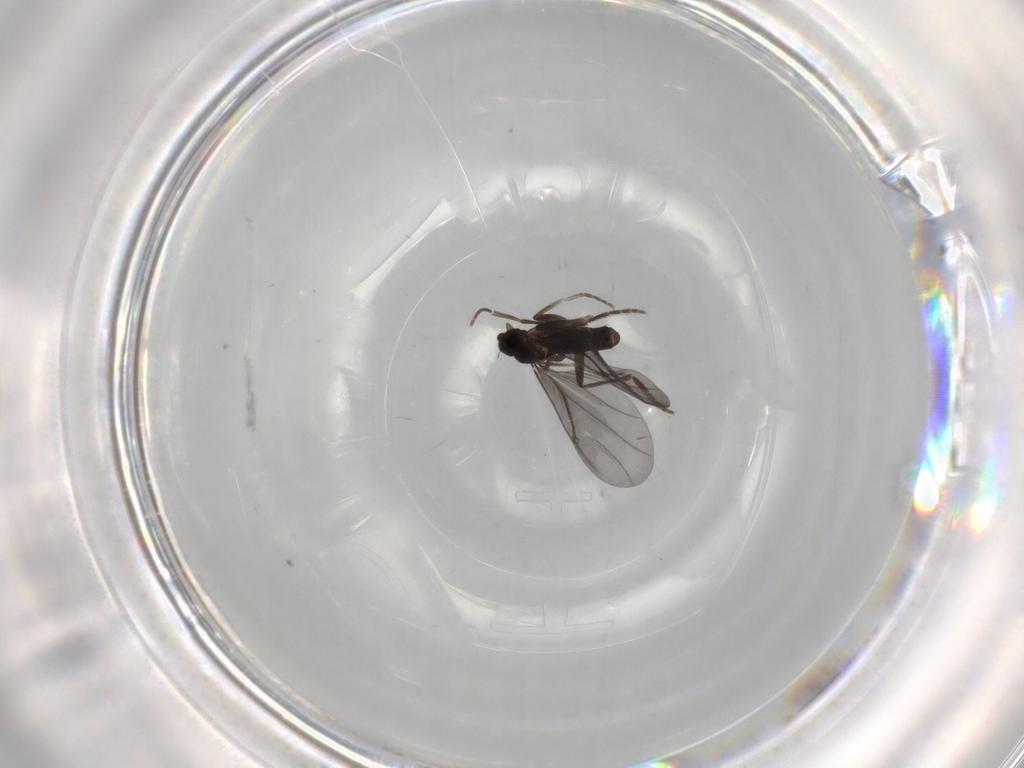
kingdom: Animalia
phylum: Arthropoda
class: Insecta
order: Diptera
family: Phoridae
